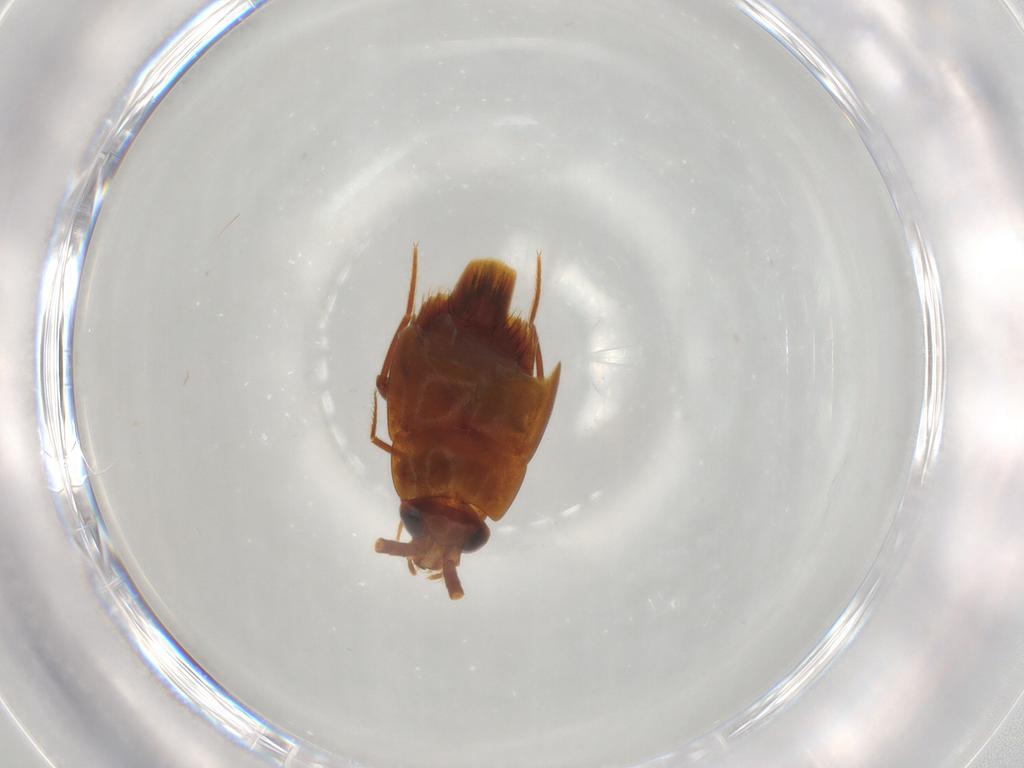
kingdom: Animalia
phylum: Arthropoda
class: Insecta
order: Coleoptera
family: Staphylinidae
